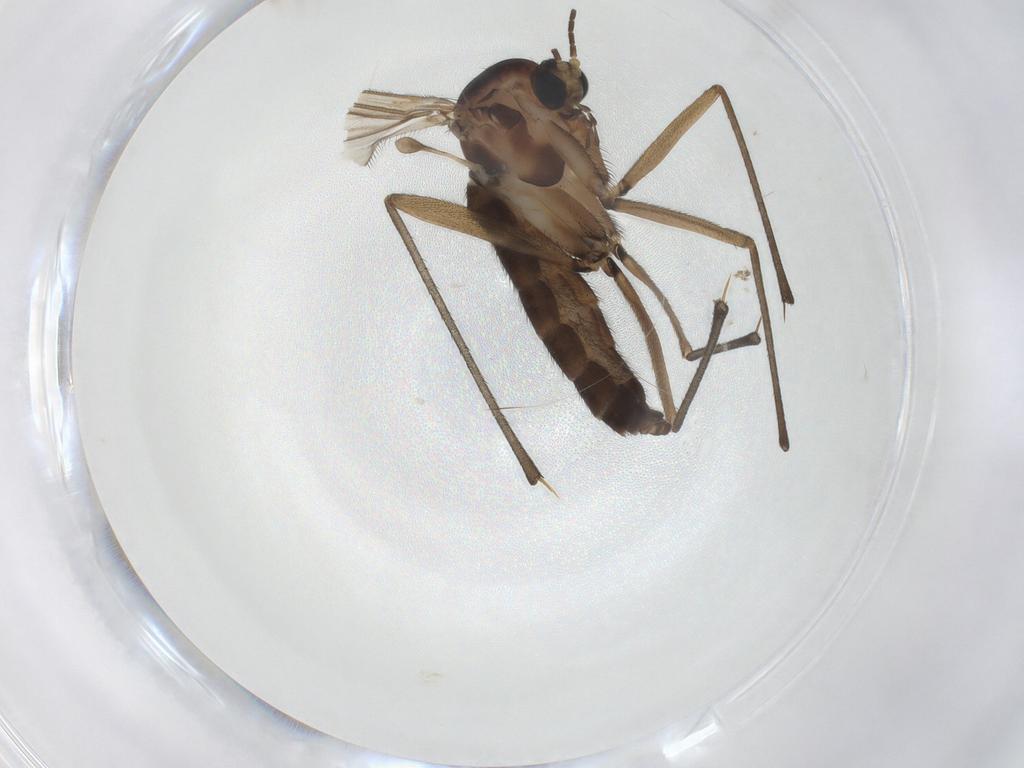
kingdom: Animalia
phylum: Arthropoda
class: Insecta
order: Diptera
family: Sciaridae
